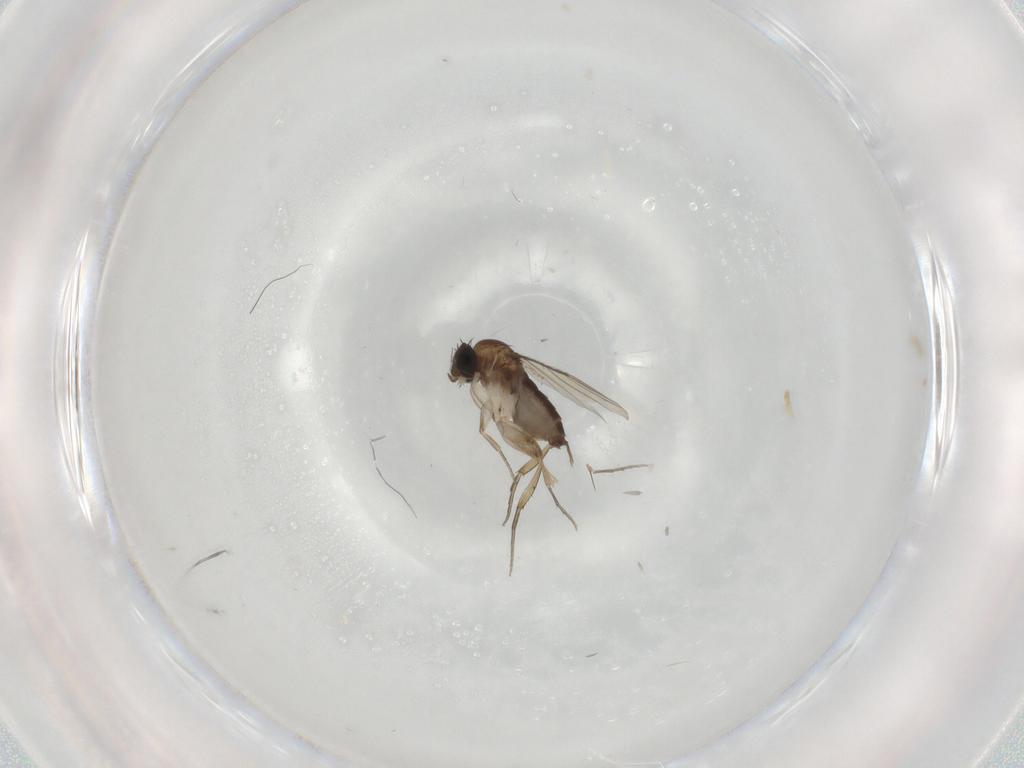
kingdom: Animalia
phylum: Arthropoda
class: Insecta
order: Diptera
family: Phoridae
